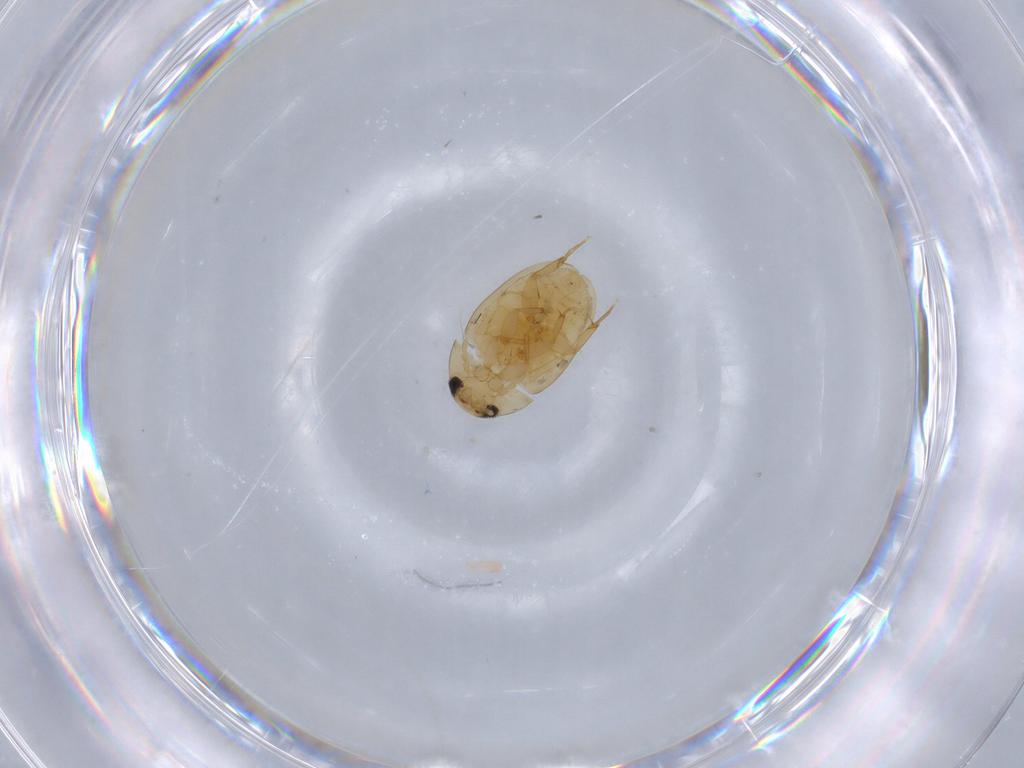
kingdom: Animalia
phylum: Arthropoda
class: Insecta
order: Coleoptera
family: Phalacridae
